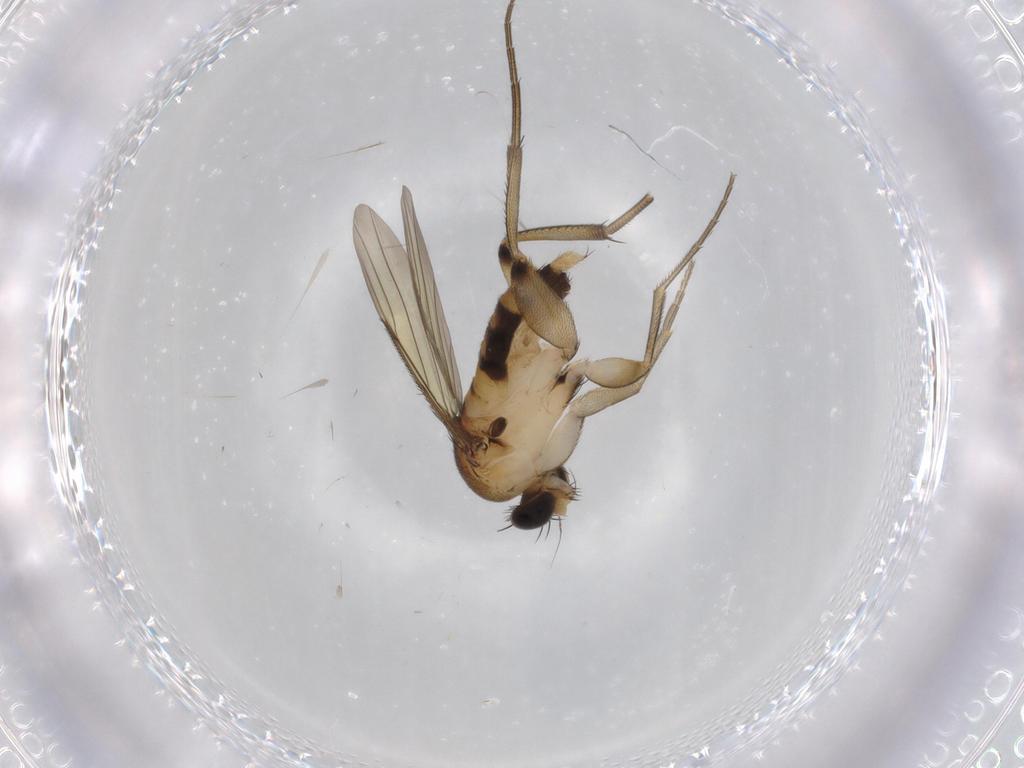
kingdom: Animalia
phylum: Arthropoda
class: Insecta
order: Diptera
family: Phoridae
